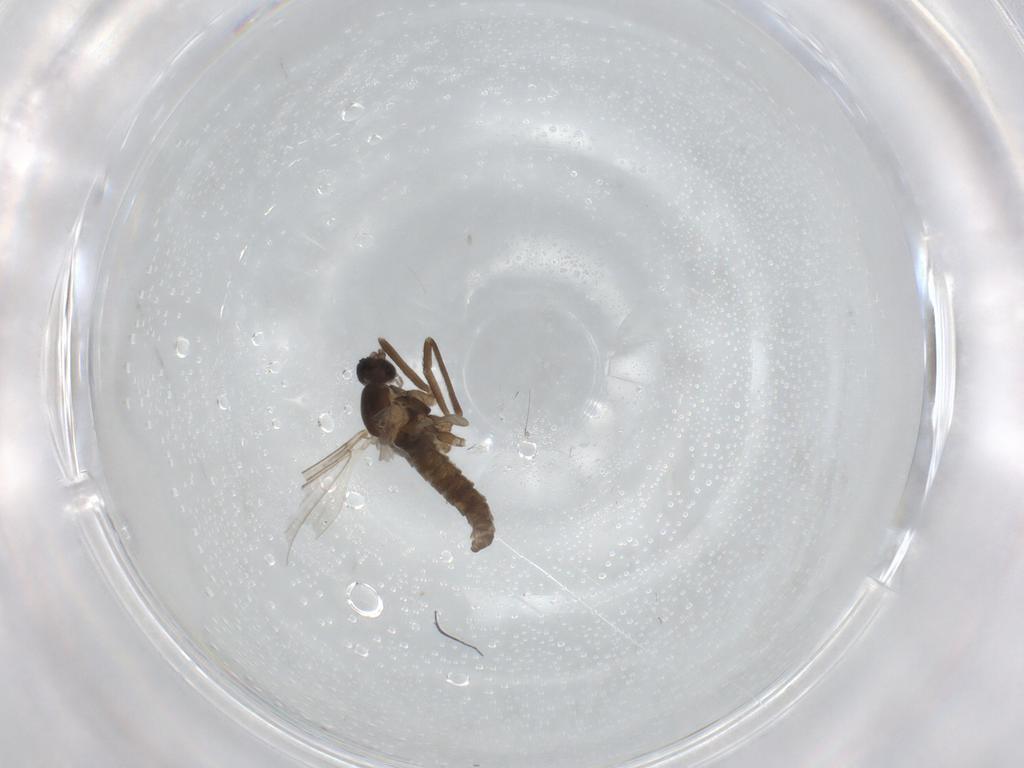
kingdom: Animalia
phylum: Arthropoda
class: Insecta
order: Diptera
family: Cecidomyiidae
